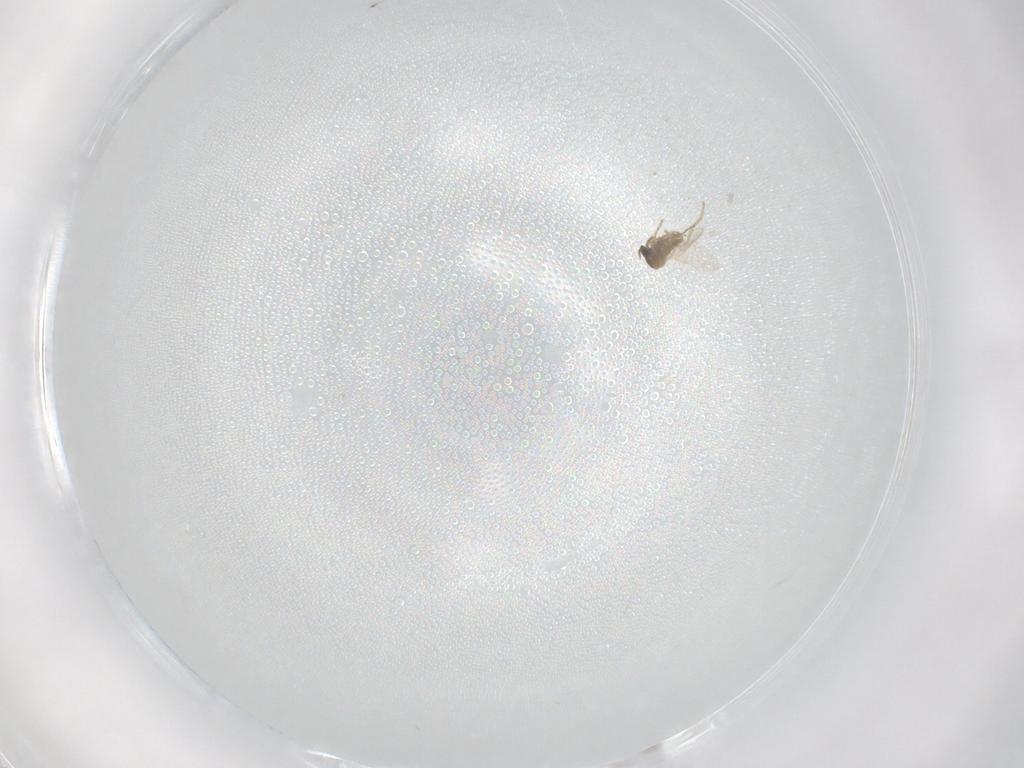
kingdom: Animalia
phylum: Arthropoda
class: Insecta
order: Diptera
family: Cecidomyiidae
